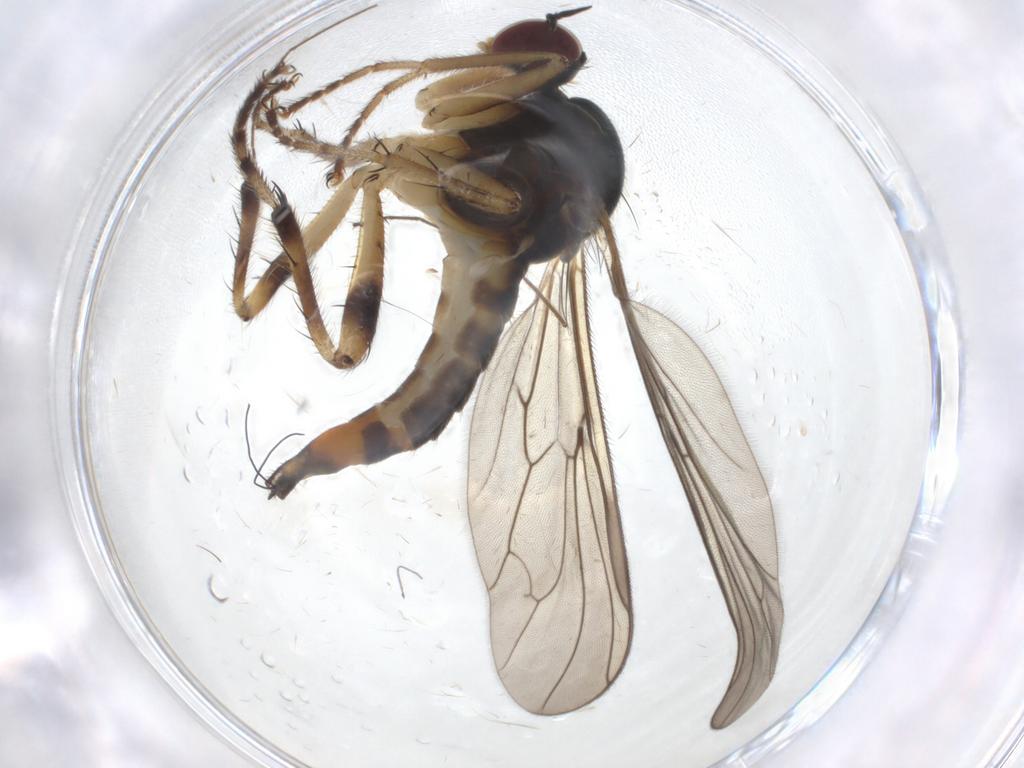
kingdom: Animalia
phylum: Arthropoda
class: Insecta
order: Diptera
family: Hybotidae
